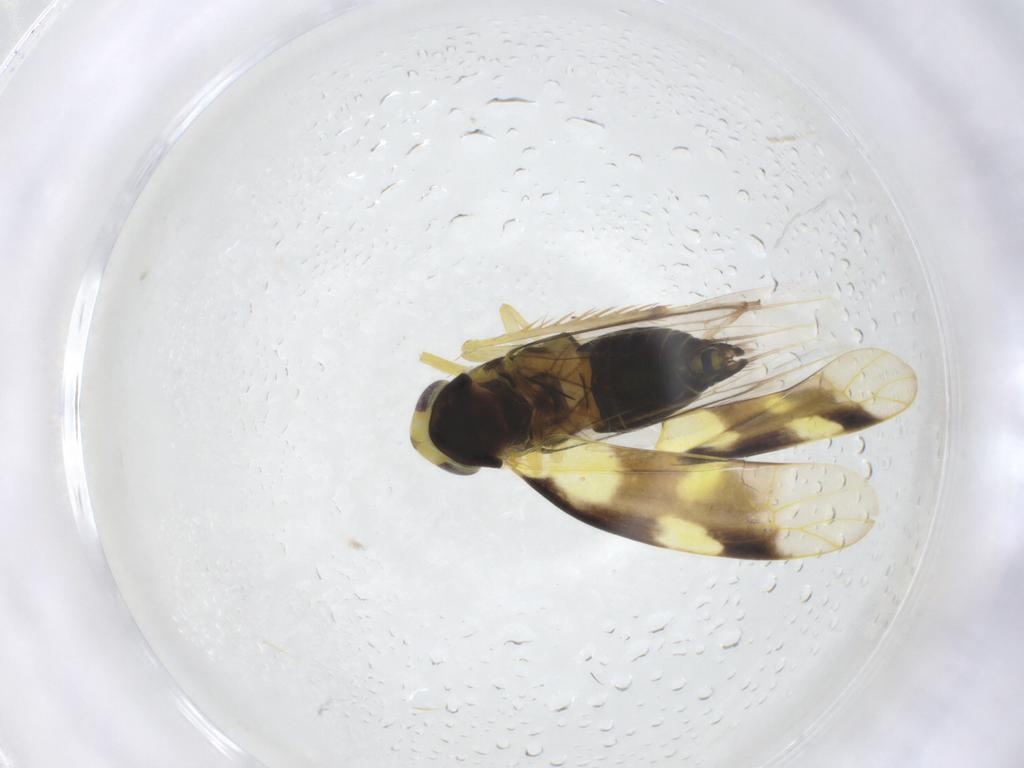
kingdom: Animalia
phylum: Arthropoda
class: Insecta
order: Hemiptera
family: Cicadellidae
